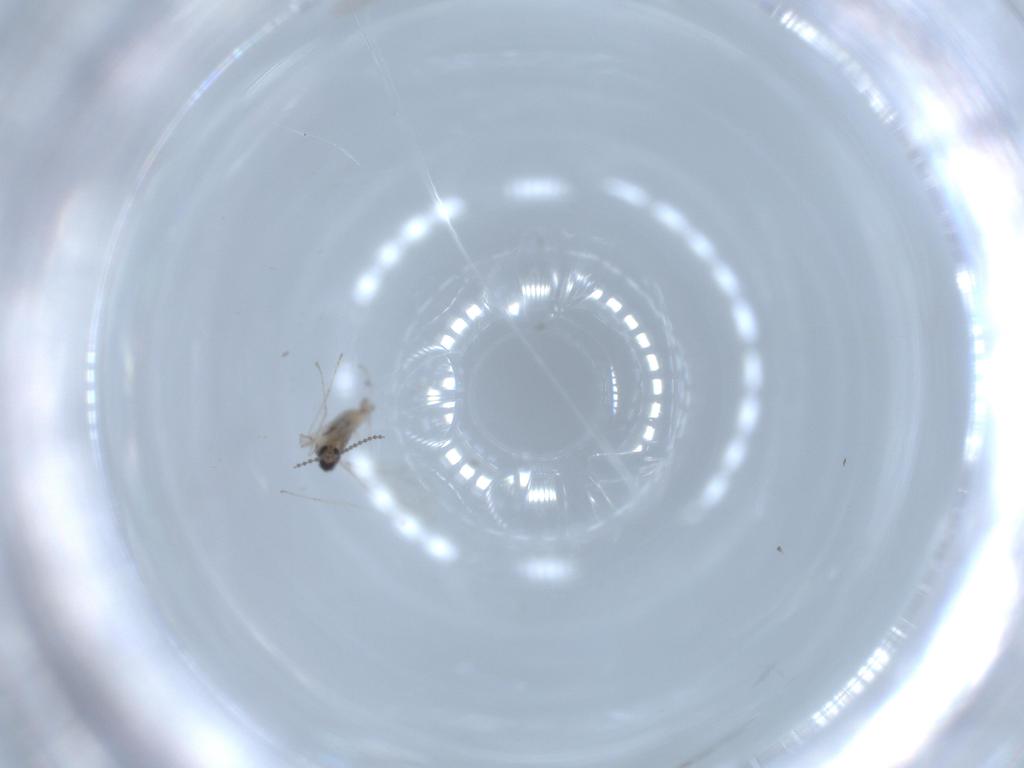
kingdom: Animalia
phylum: Arthropoda
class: Insecta
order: Diptera
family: Cecidomyiidae
